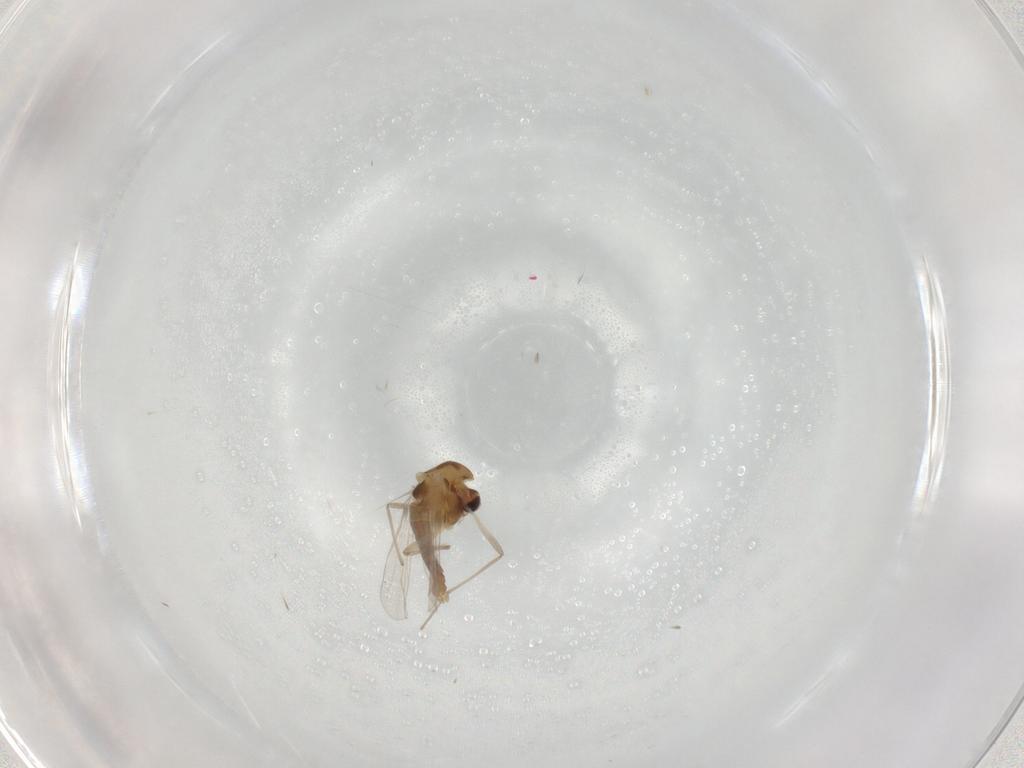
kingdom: Animalia
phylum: Arthropoda
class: Insecta
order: Diptera
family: Chironomidae
